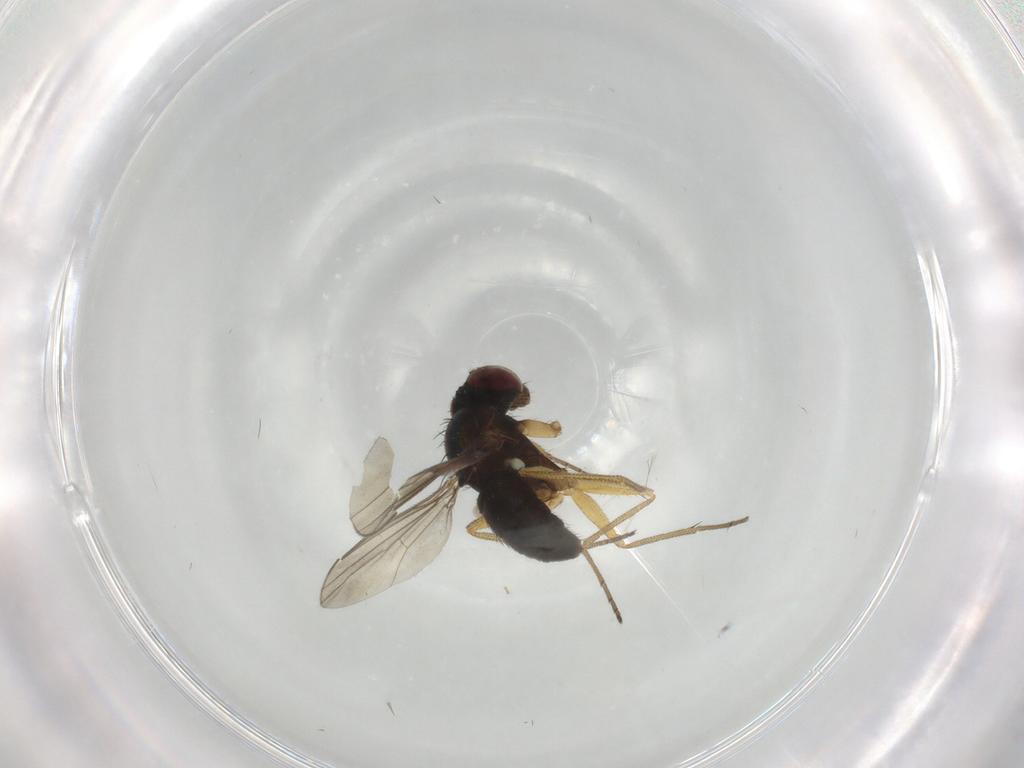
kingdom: Animalia
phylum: Arthropoda
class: Insecta
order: Diptera
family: Dolichopodidae
